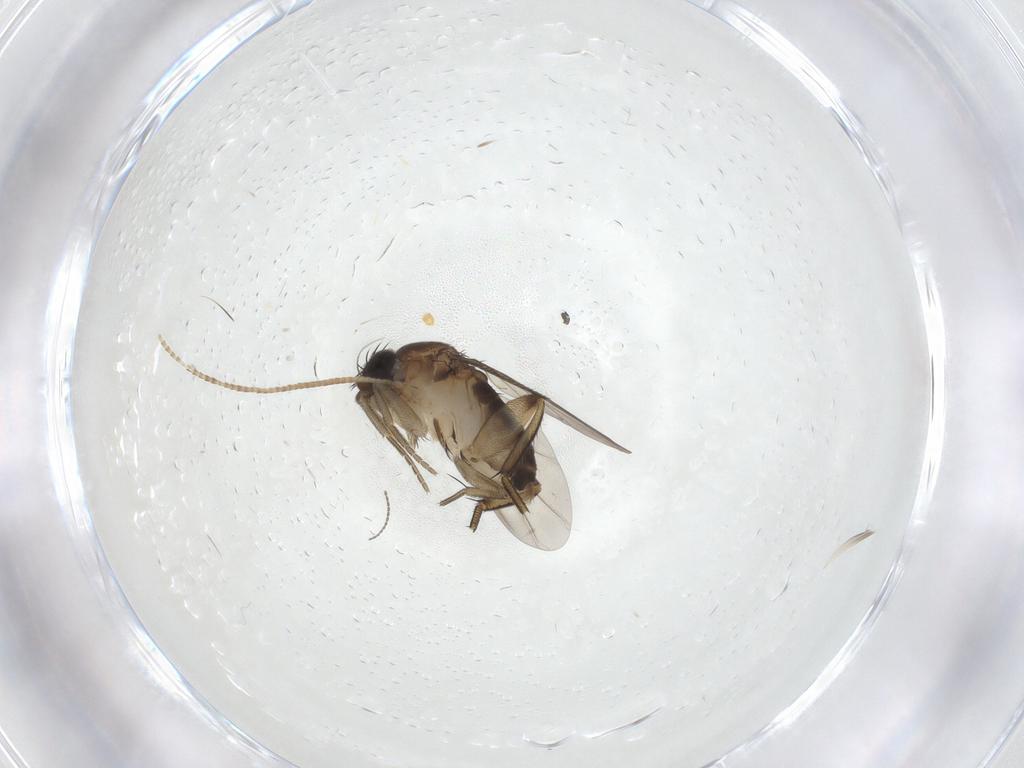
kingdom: Animalia
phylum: Arthropoda
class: Insecta
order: Diptera
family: Phoridae
